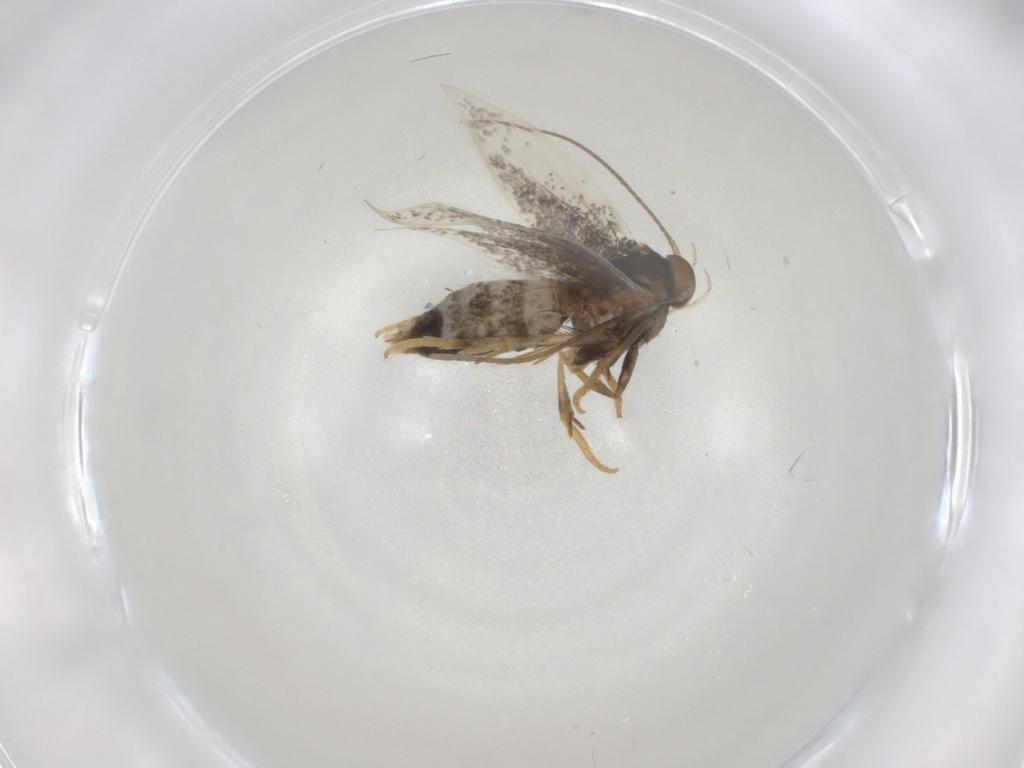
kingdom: Animalia
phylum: Arthropoda
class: Insecta
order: Lepidoptera
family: Elachistidae
